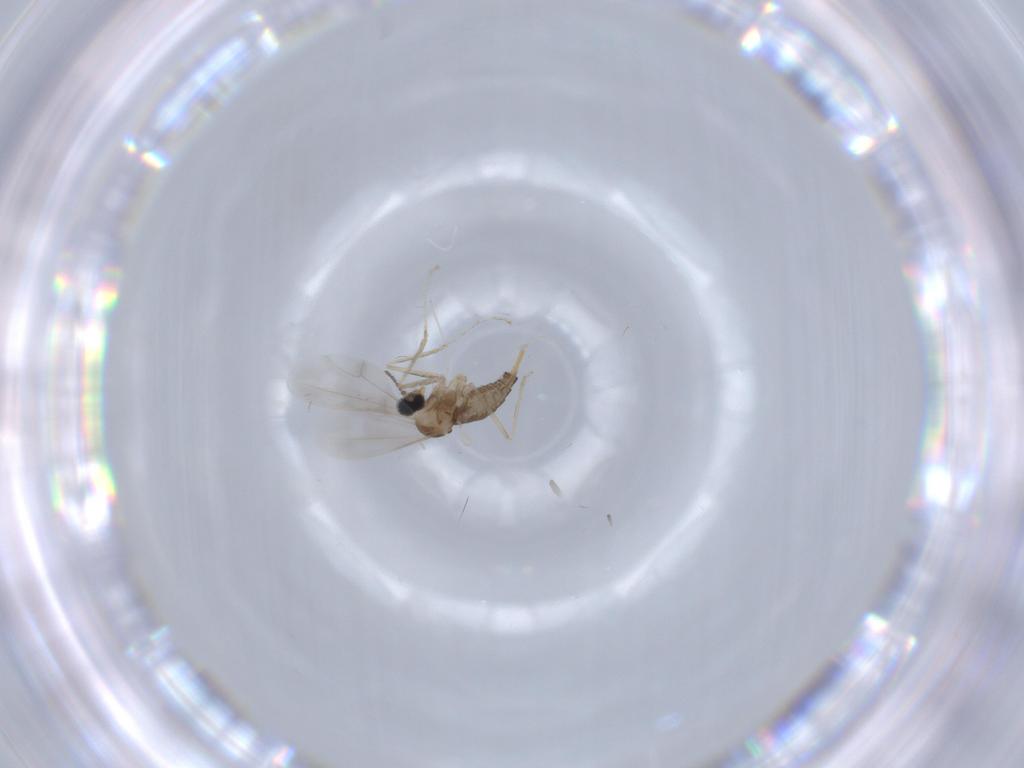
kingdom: Animalia
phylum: Arthropoda
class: Insecta
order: Diptera
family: Cecidomyiidae
